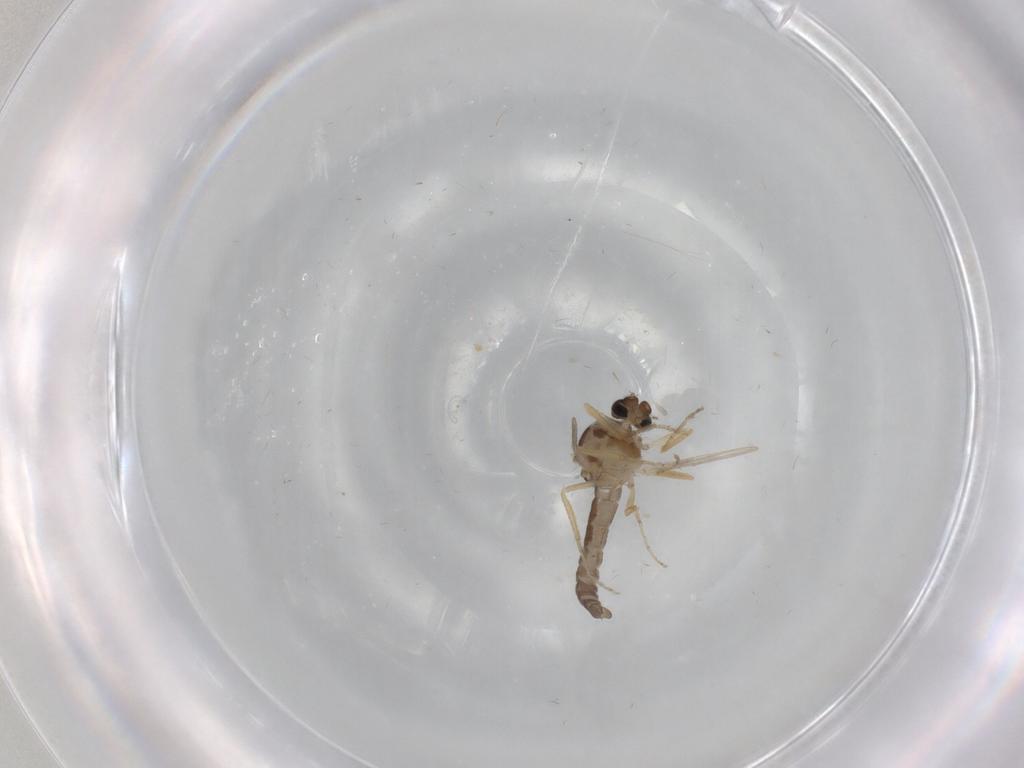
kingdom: Animalia
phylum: Arthropoda
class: Insecta
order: Diptera
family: Ceratopogonidae
